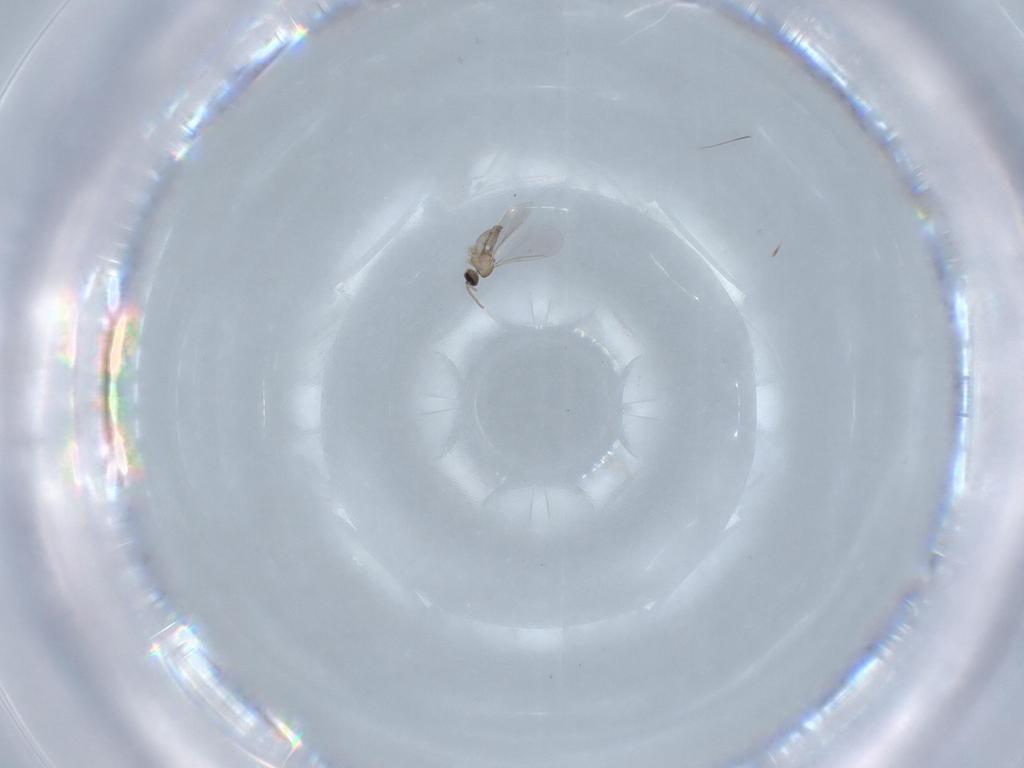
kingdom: Animalia
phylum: Arthropoda
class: Insecta
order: Diptera
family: Cecidomyiidae
